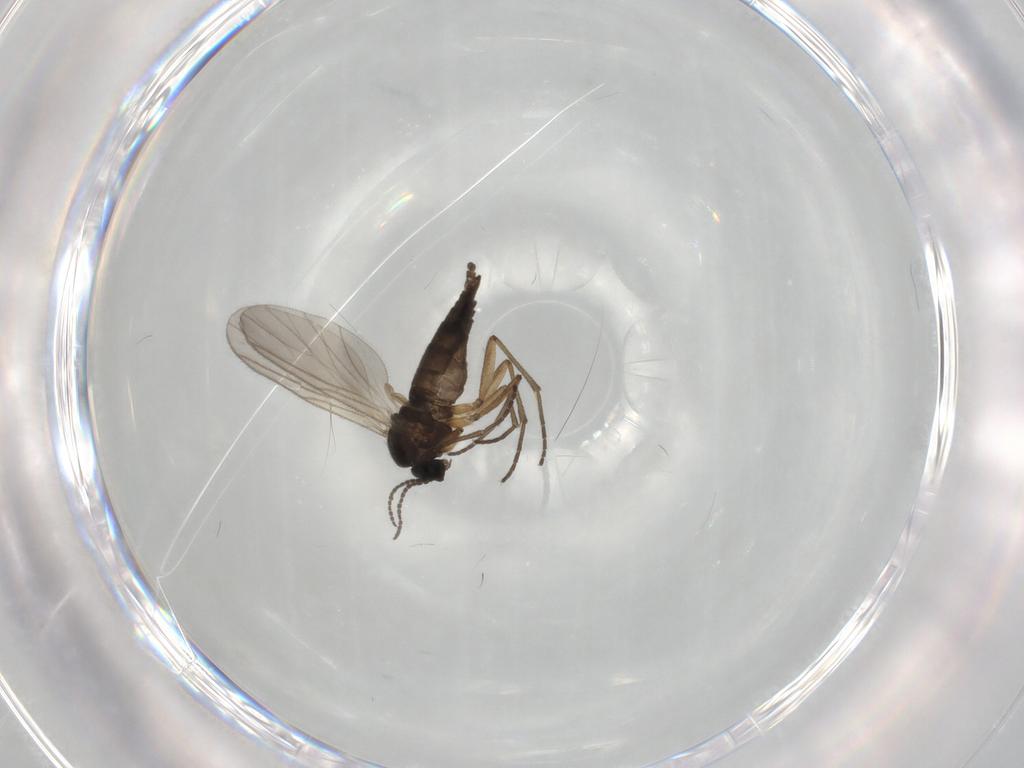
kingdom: Animalia
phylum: Arthropoda
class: Insecta
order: Diptera
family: Sciaridae
